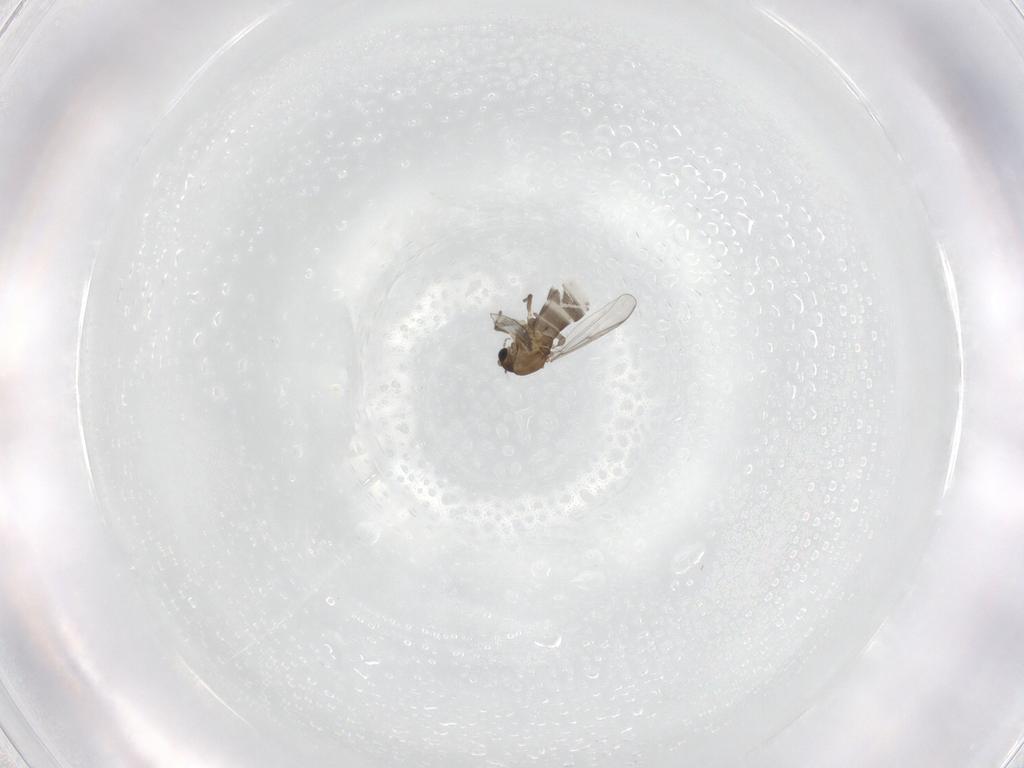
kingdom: Animalia
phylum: Arthropoda
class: Insecta
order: Diptera
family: Chironomidae
